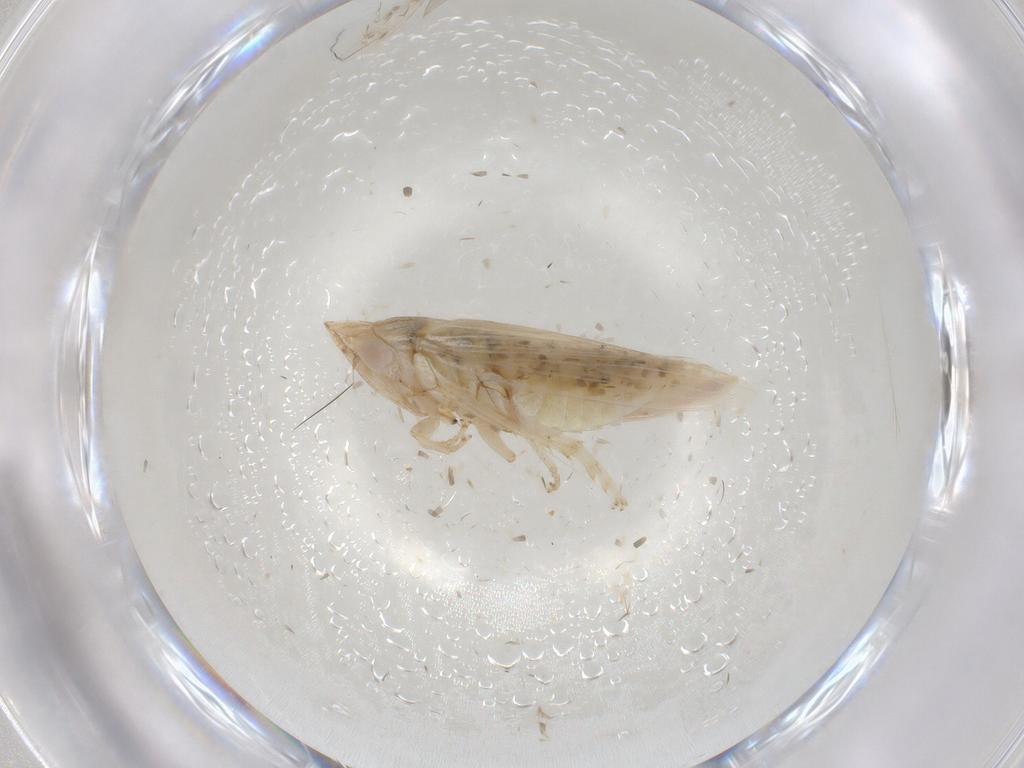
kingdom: Animalia
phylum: Arthropoda
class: Insecta
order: Hemiptera
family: Cicadellidae
